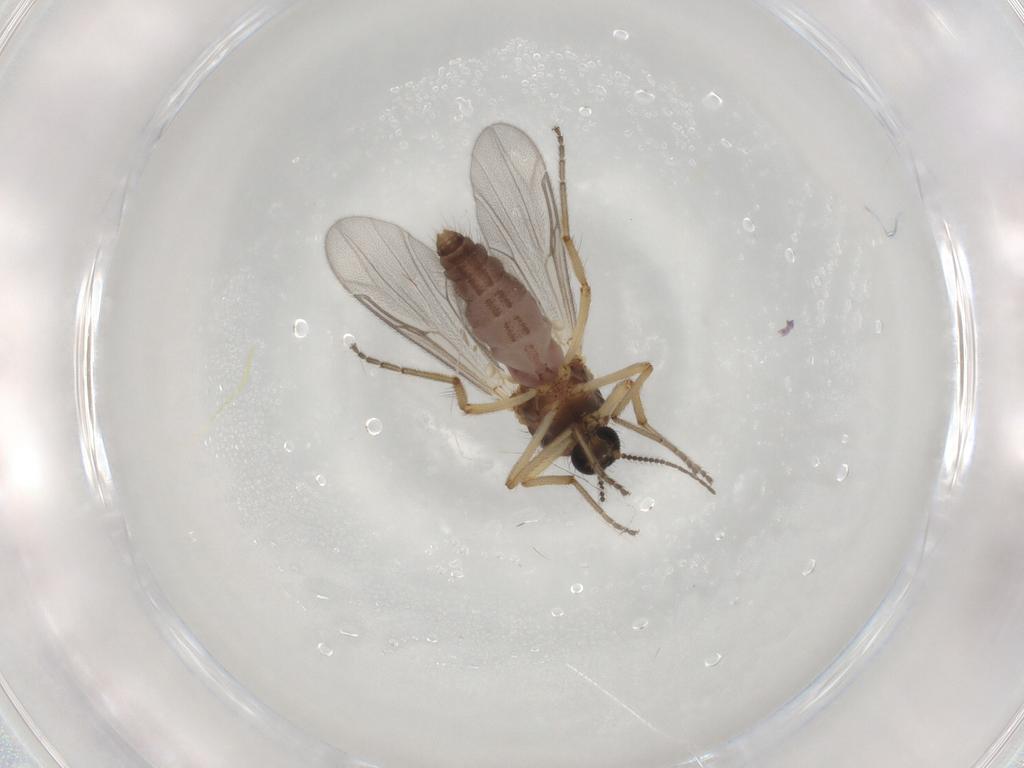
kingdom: Animalia
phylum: Arthropoda
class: Insecta
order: Diptera
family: Ceratopogonidae
